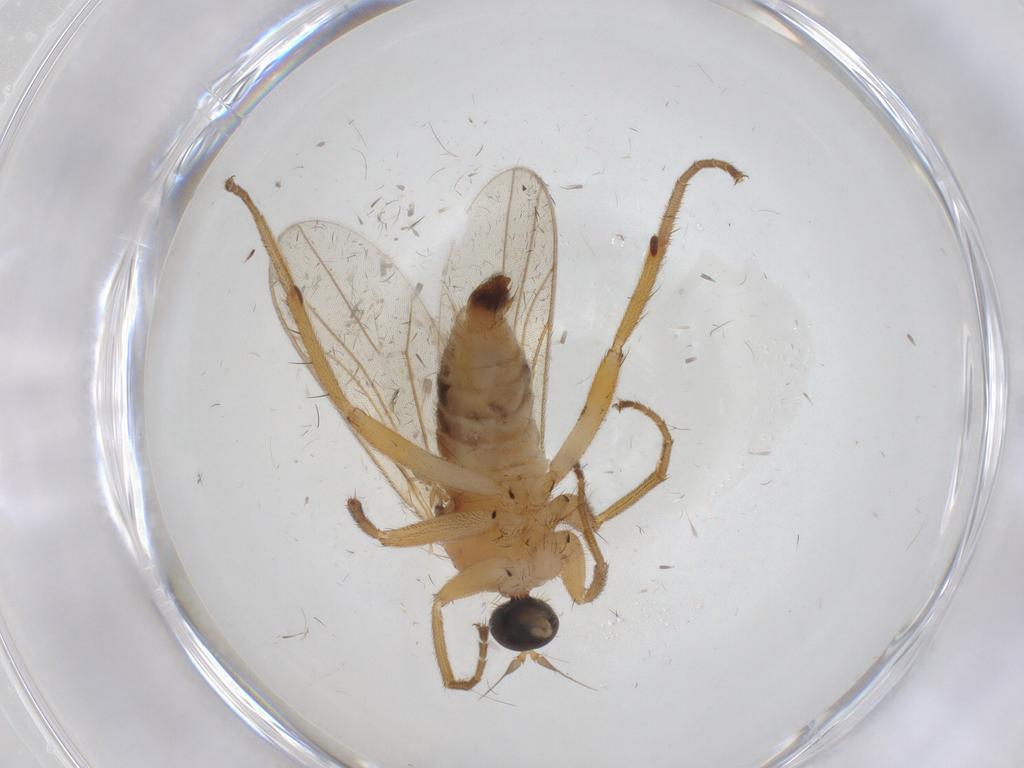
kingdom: Animalia
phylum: Arthropoda
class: Insecta
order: Diptera
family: Hybotidae
